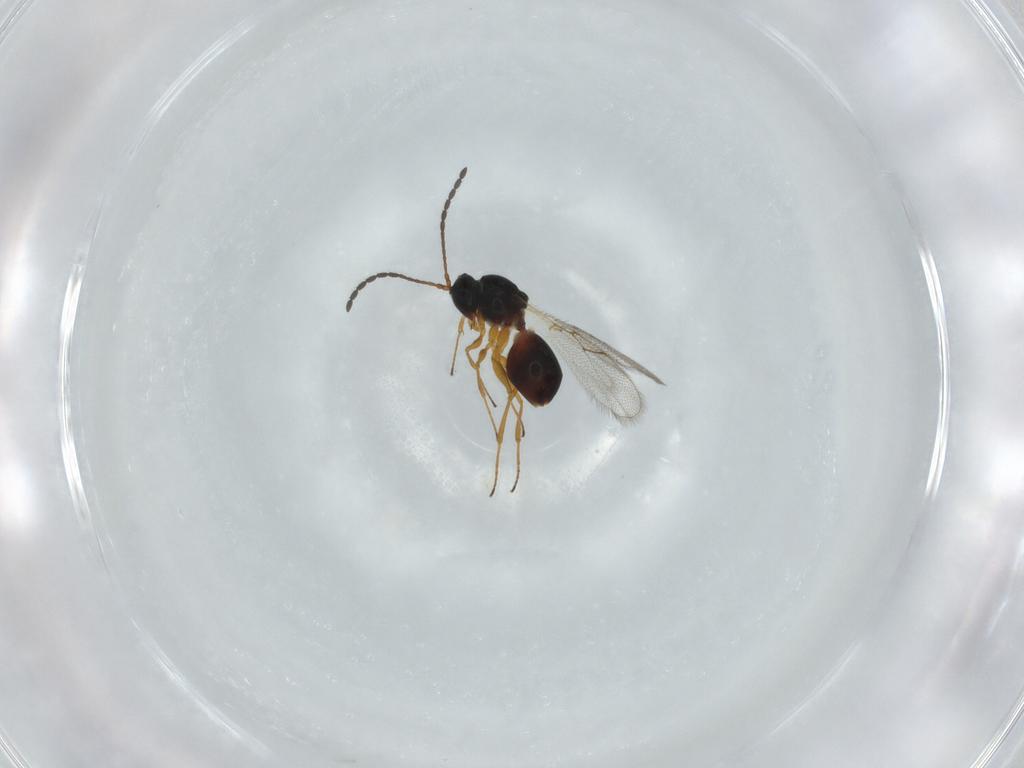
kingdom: Animalia
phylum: Arthropoda
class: Insecta
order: Hymenoptera
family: Figitidae
